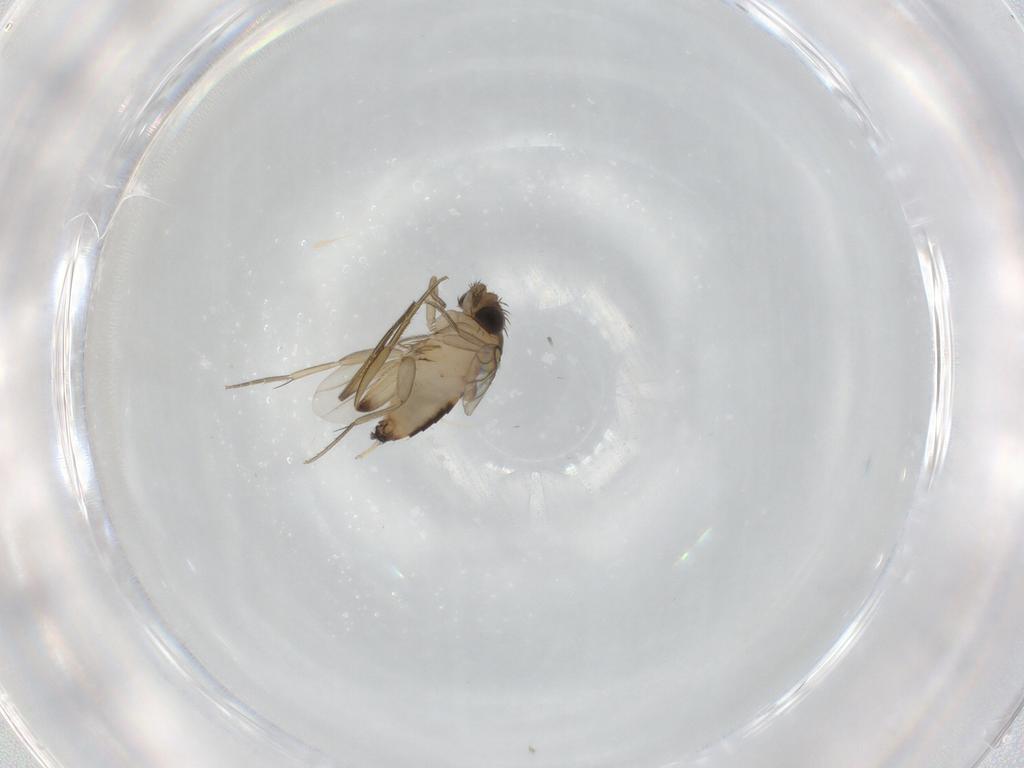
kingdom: Animalia
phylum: Arthropoda
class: Insecta
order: Diptera
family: Phoridae
